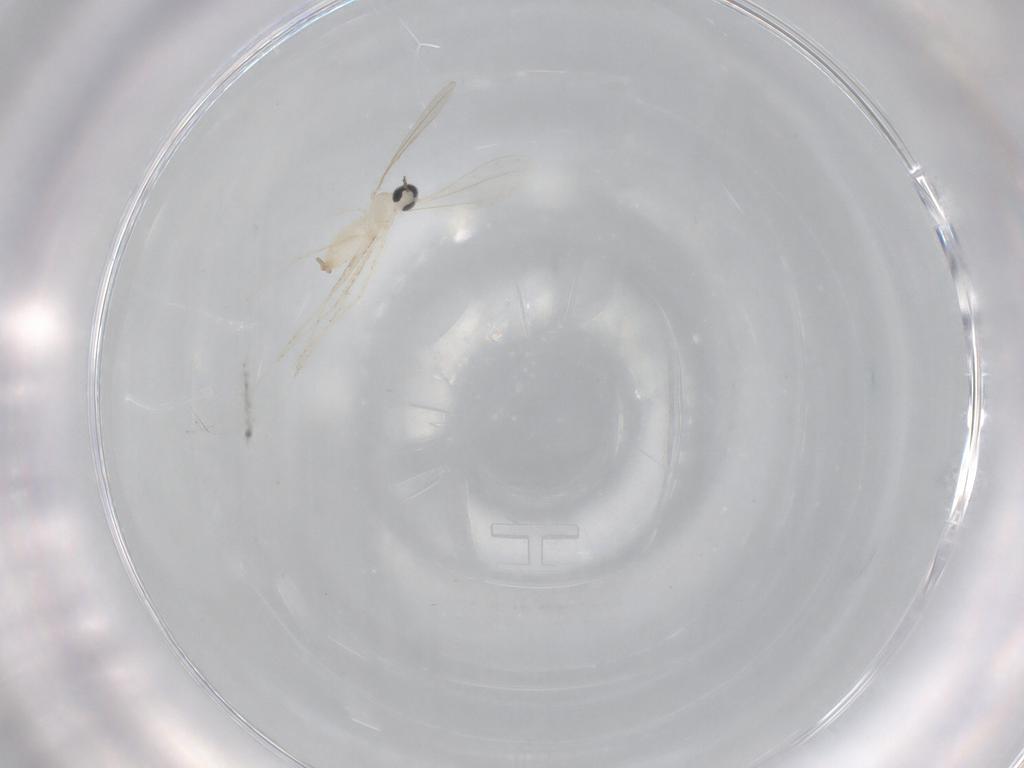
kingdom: Animalia
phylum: Arthropoda
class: Insecta
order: Diptera
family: Cecidomyiidae
